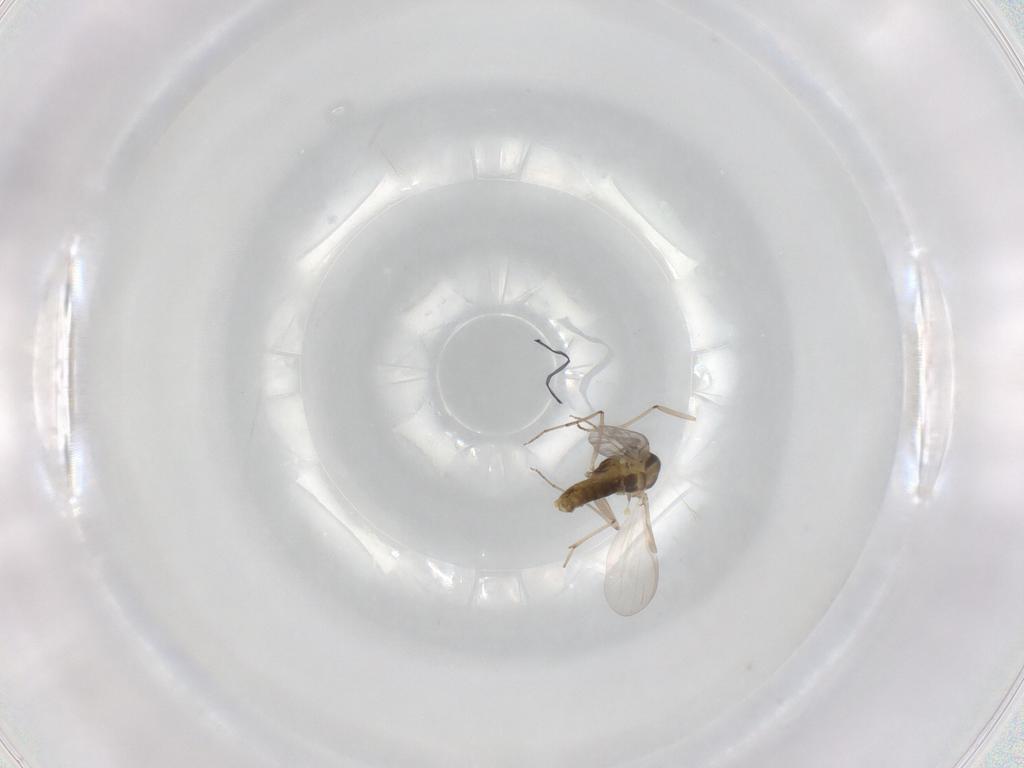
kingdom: Animalia
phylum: Arthropoda
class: Insecta
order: Diptera
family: Chironomidae
